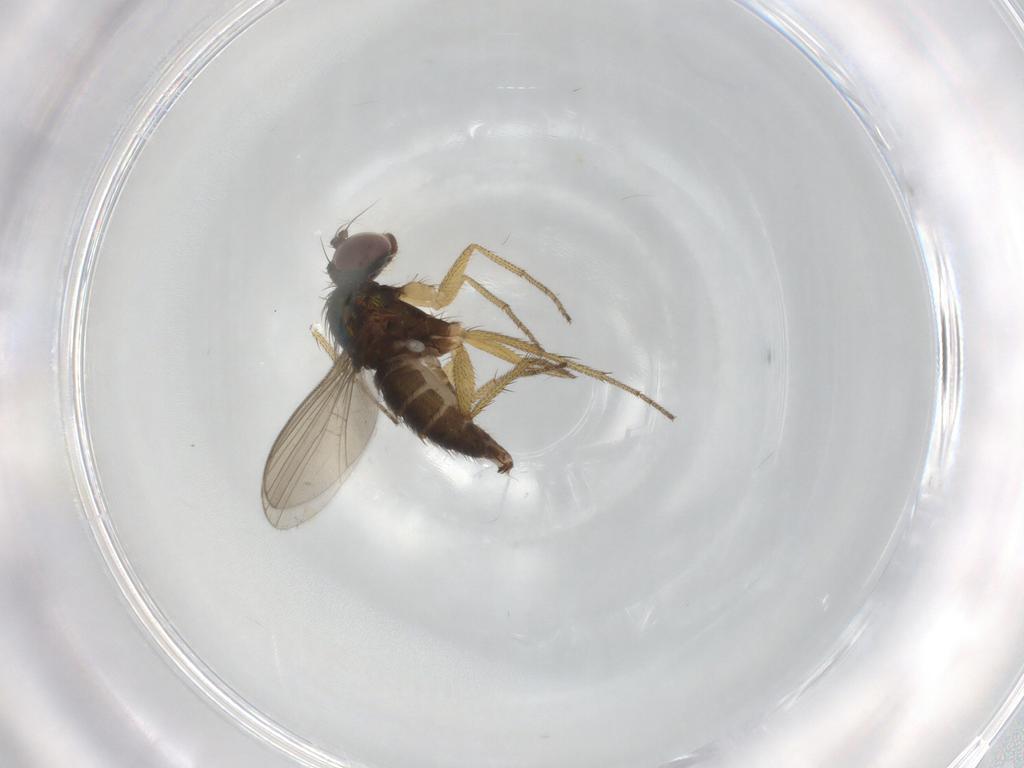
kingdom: Animalia
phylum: Arthropoda
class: Insecta
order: Diptera
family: Dolichopodidae
